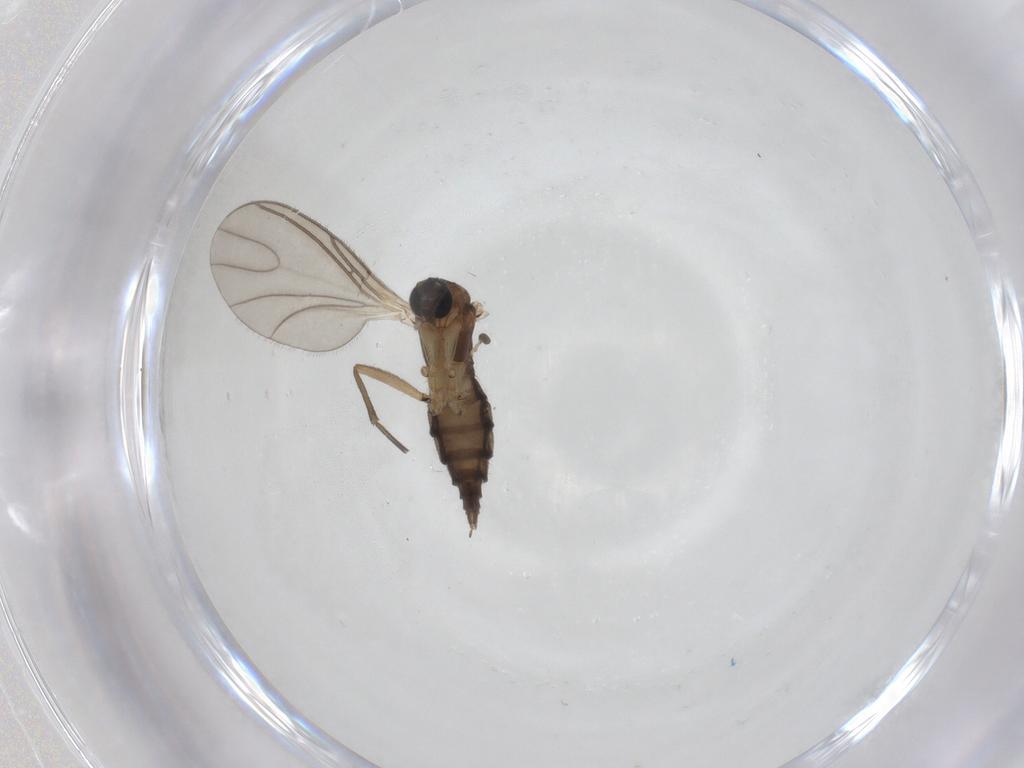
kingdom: Animalia
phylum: Arthropoda
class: Insecta
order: Diptera
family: Sciaridae
